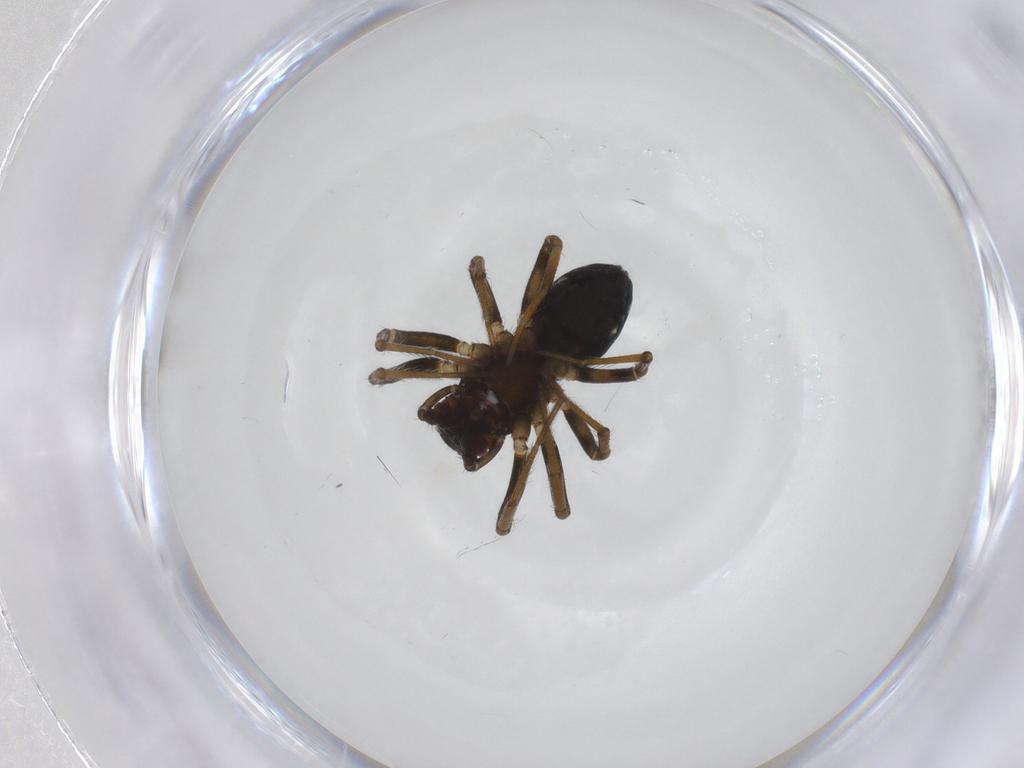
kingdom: Animalia
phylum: Arthropoda
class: Arachnida
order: Araneae
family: Theridiidae
